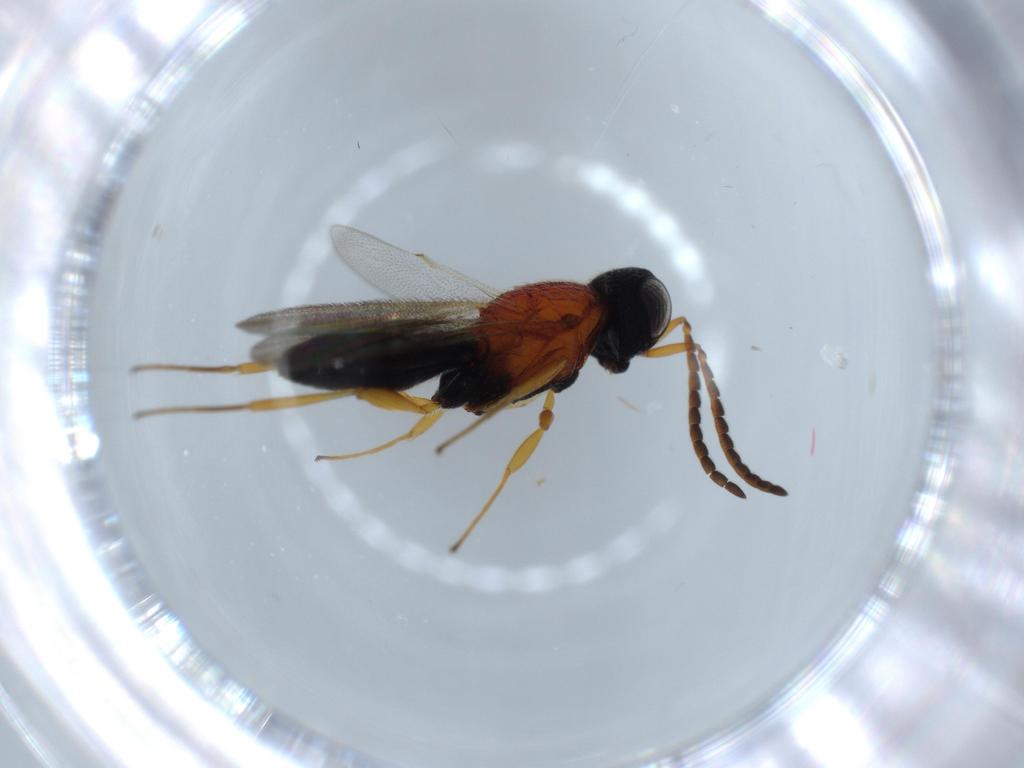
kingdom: Animalia
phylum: Arthropoda
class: Insecta
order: Hymenoptera
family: Scelionidae
